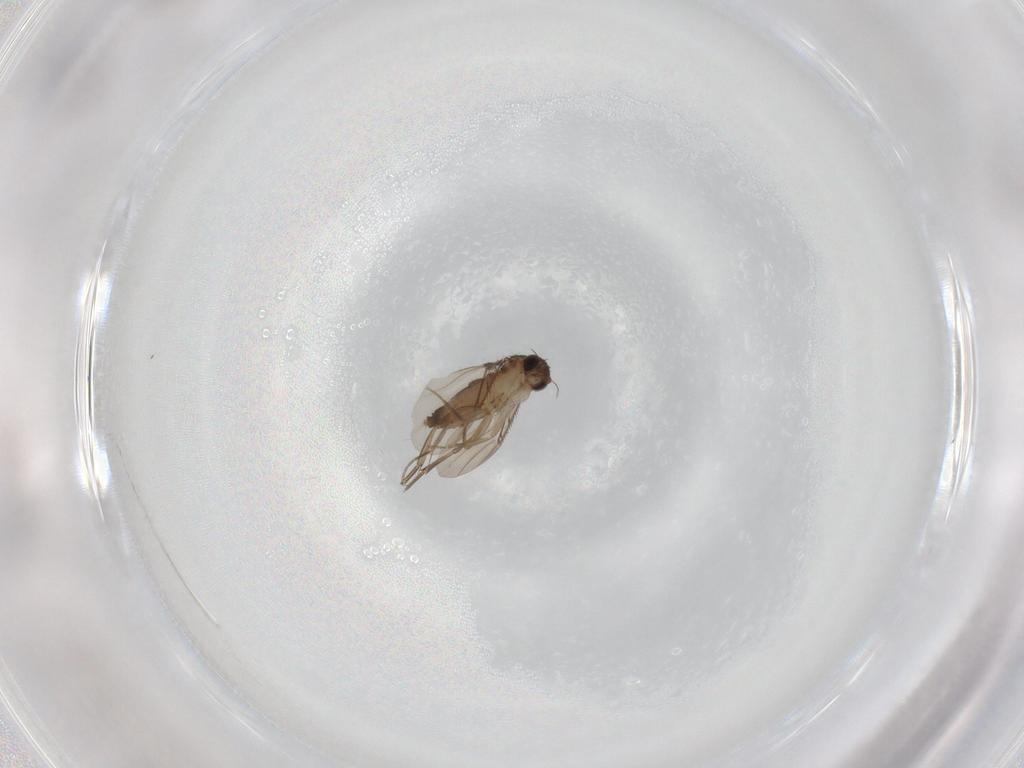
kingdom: Animalia
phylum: Arthropoda
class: Insecta
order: Diptera
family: Phoridae
